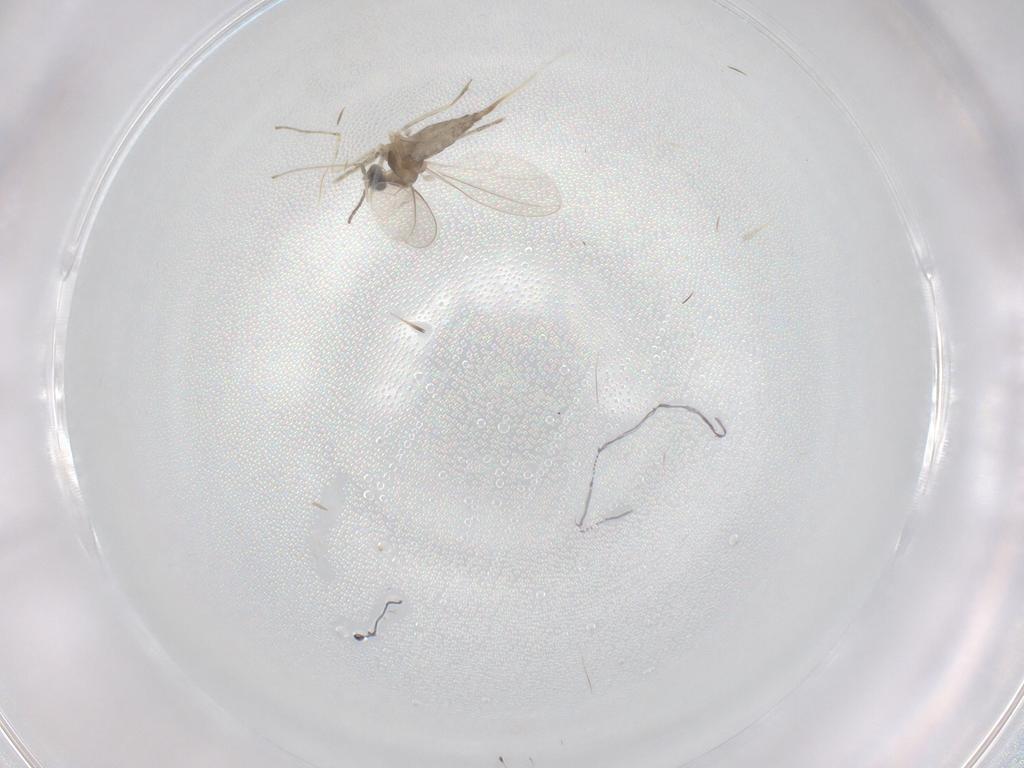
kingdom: Animalia
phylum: Arthropoda
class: Insecta
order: Diptera
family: Cecidomyiidae
